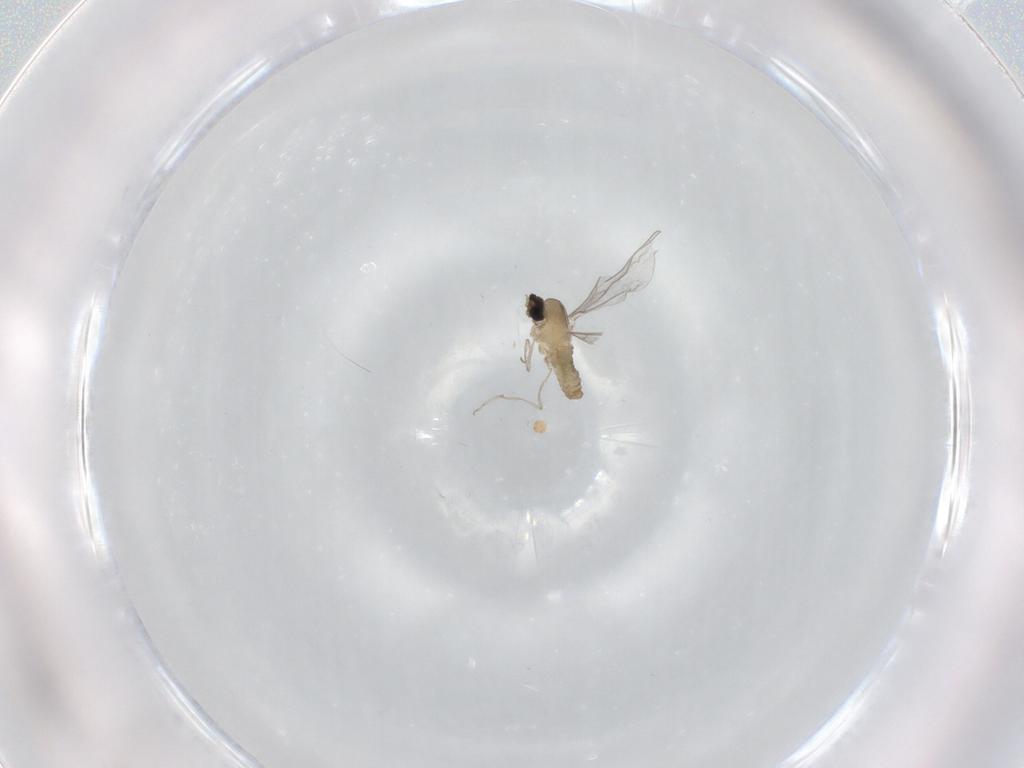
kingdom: Animalia
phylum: Arthropoda
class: Insecta
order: Diptera
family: Cecidomyiidae
